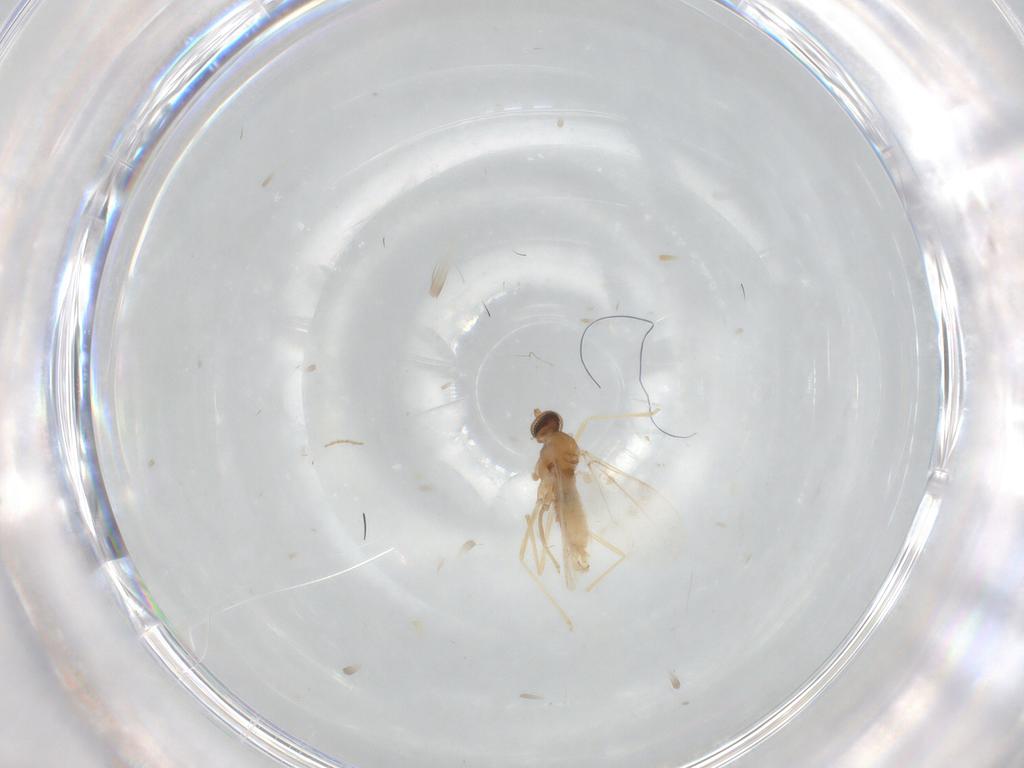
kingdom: Animalia
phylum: Arthropoda
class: Insecta
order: Diptera
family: Cecidomyiidae
